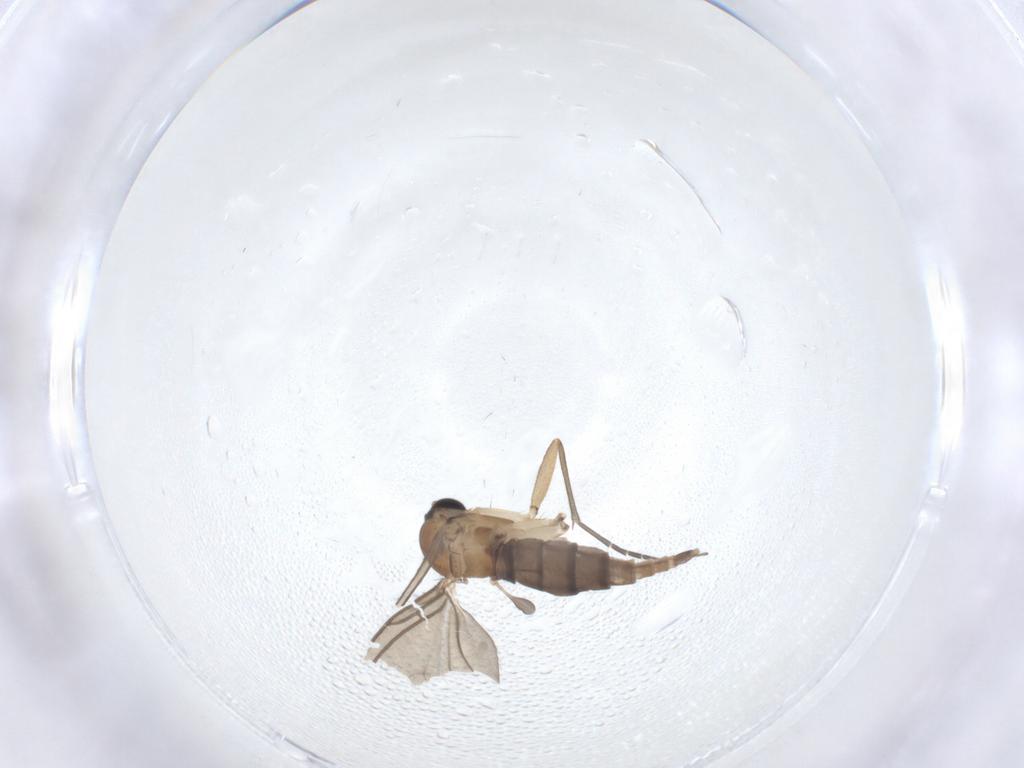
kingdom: Animalia
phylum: Arthropoda
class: Insecta
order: Diptera
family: Sciaridae
